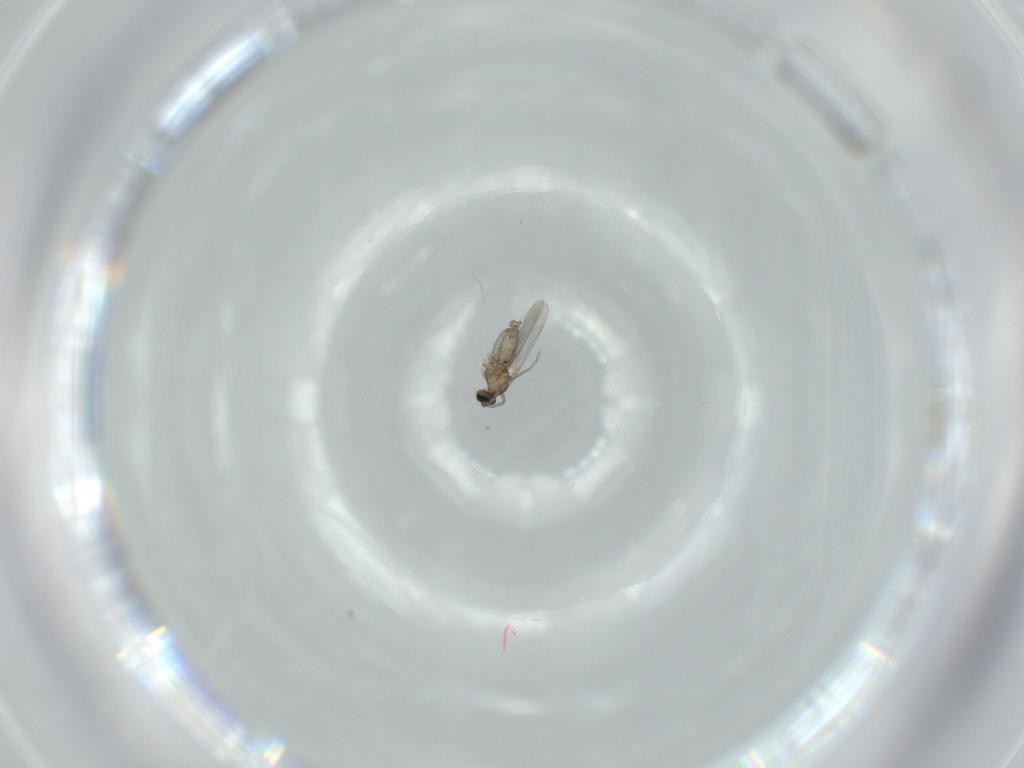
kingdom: Animalia
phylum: Arthropoda
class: Insecta
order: Diptera
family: Cecidomyiidae
